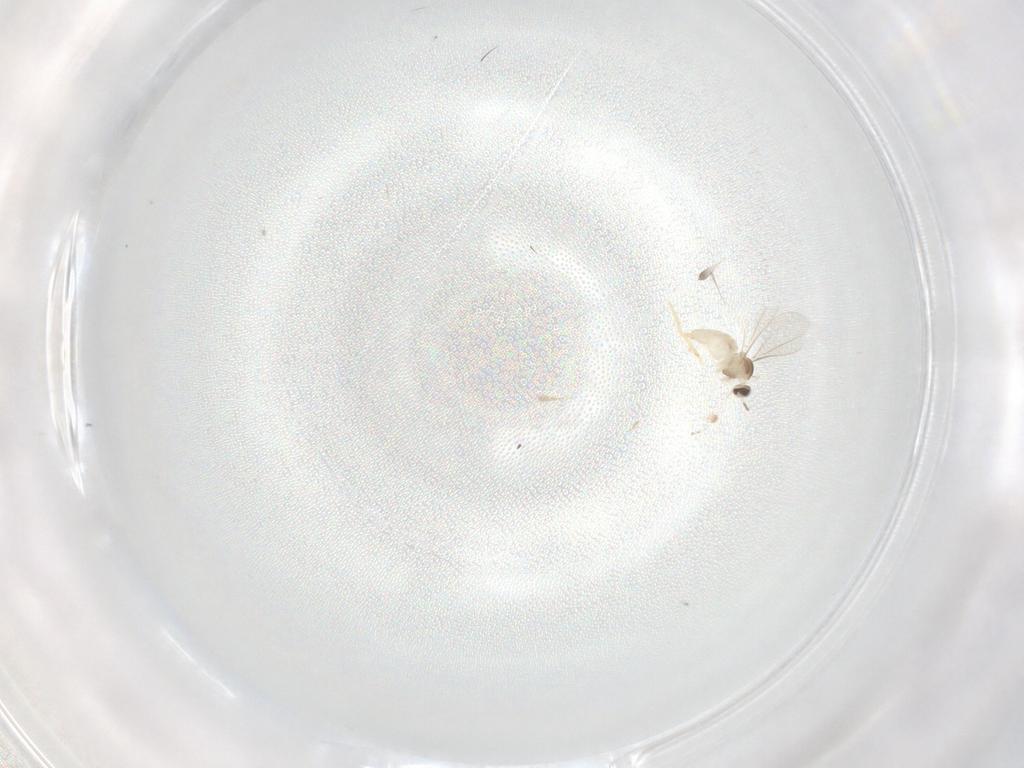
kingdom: Animalia
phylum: Arthropoda
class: Insecta
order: Diptera
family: Cecidomyiidae
